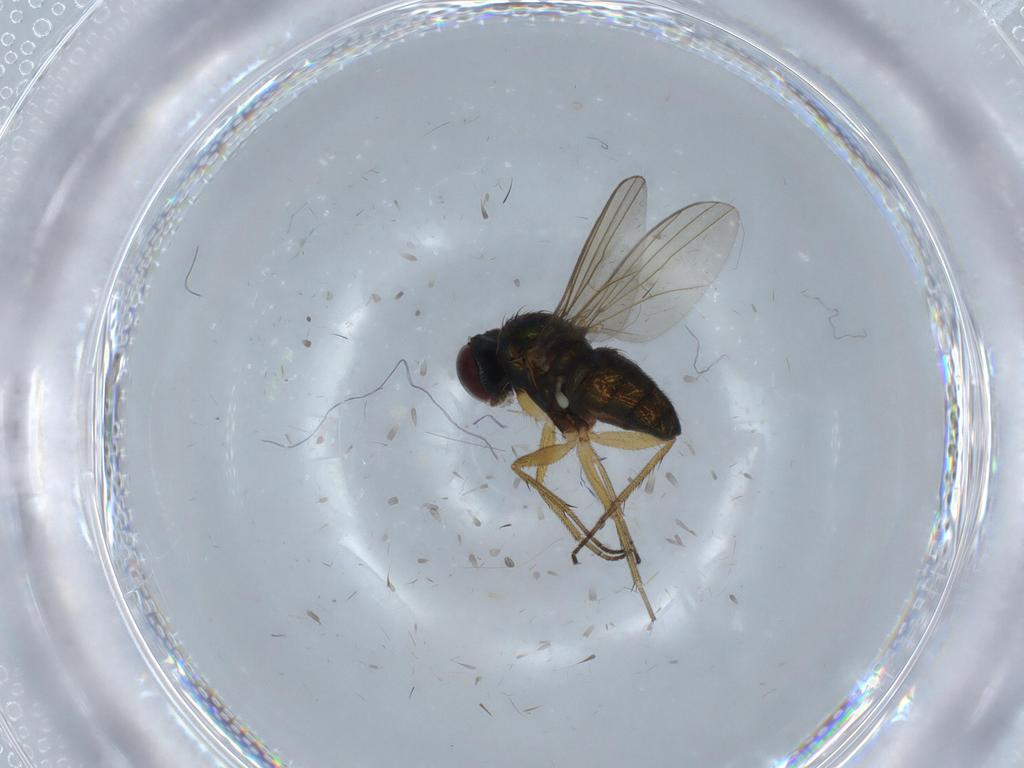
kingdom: Animalia
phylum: Arthropoda
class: Insecta
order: Diptera
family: Dolichopodidae
